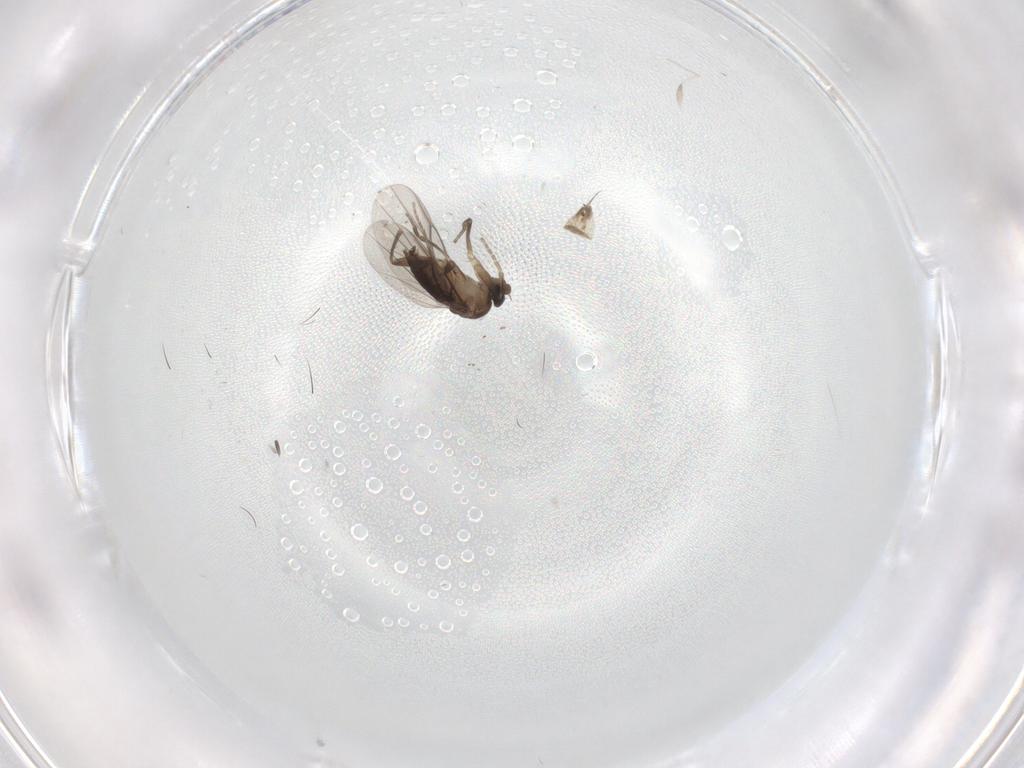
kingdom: Animalia
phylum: Arthropoda
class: Insecta
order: Diptera
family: Cecidomyiidae
